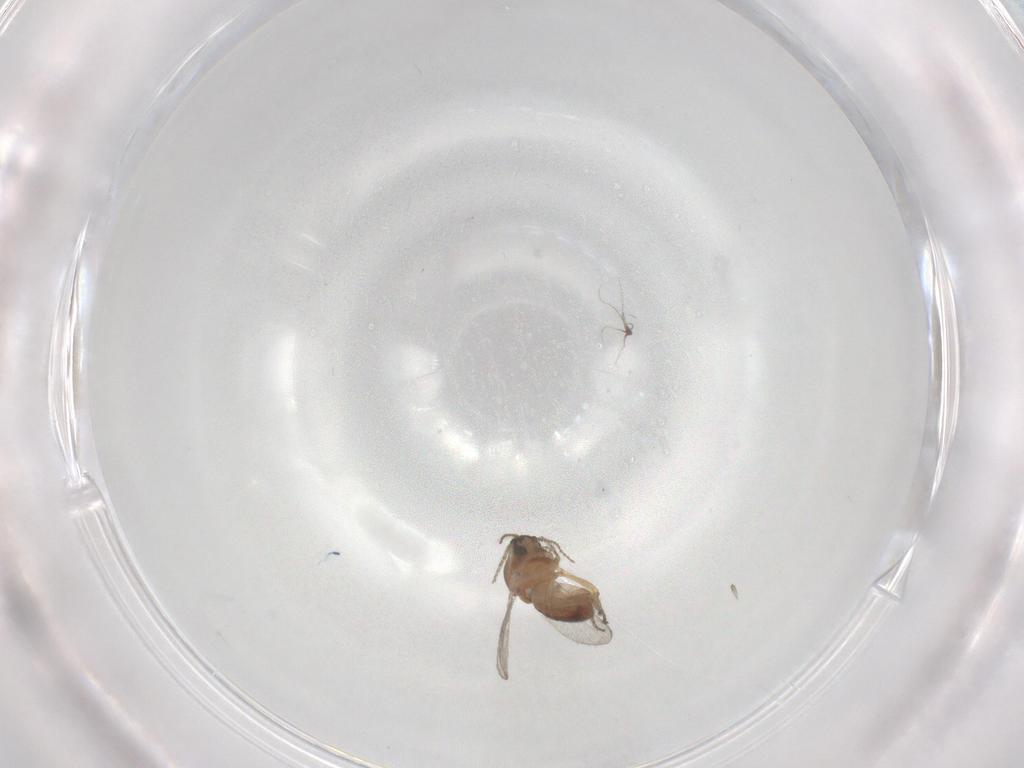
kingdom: Animalia
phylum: Arthropoda
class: Insecta
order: Diptera
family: Ceratopogonidae
